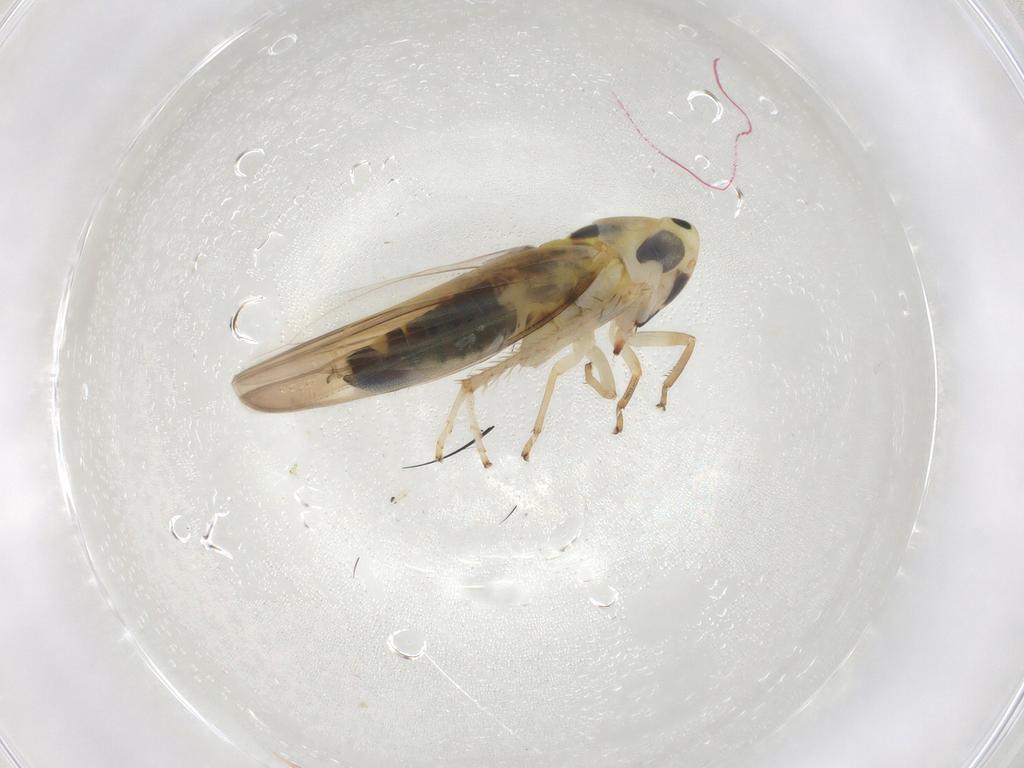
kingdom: Animalia
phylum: Arthropoda
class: Insecta
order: Hemiptera
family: Cicadellidae
